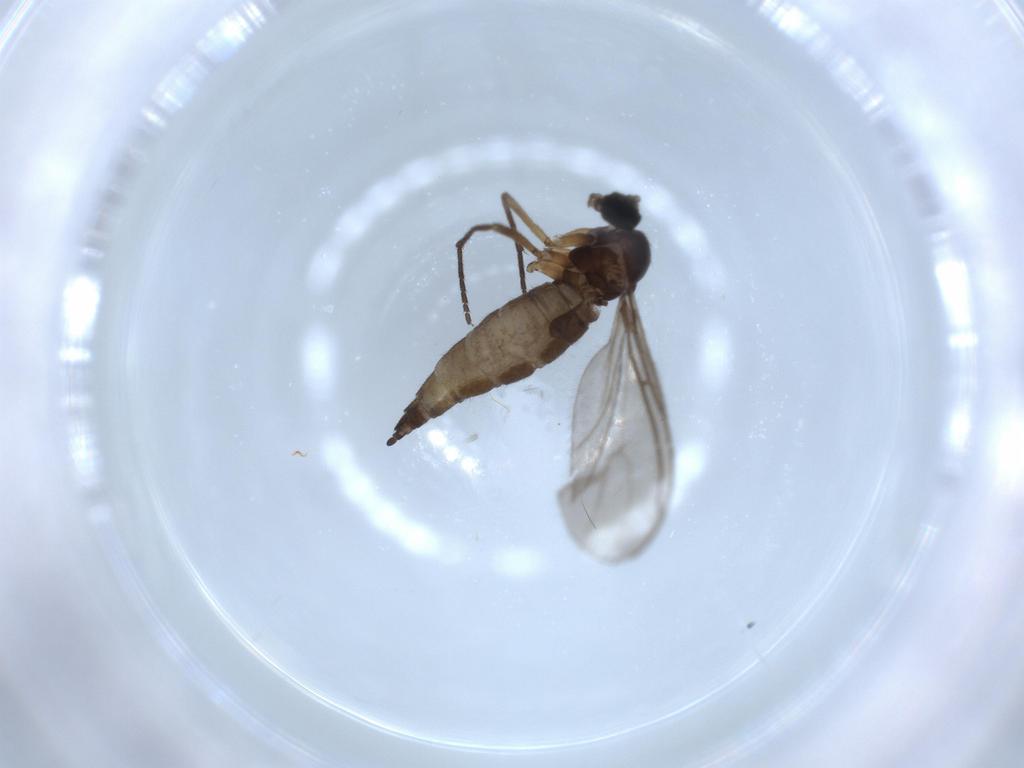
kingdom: Animalia
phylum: Arthropoda
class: Insecta
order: Diptera
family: Sciaridae
